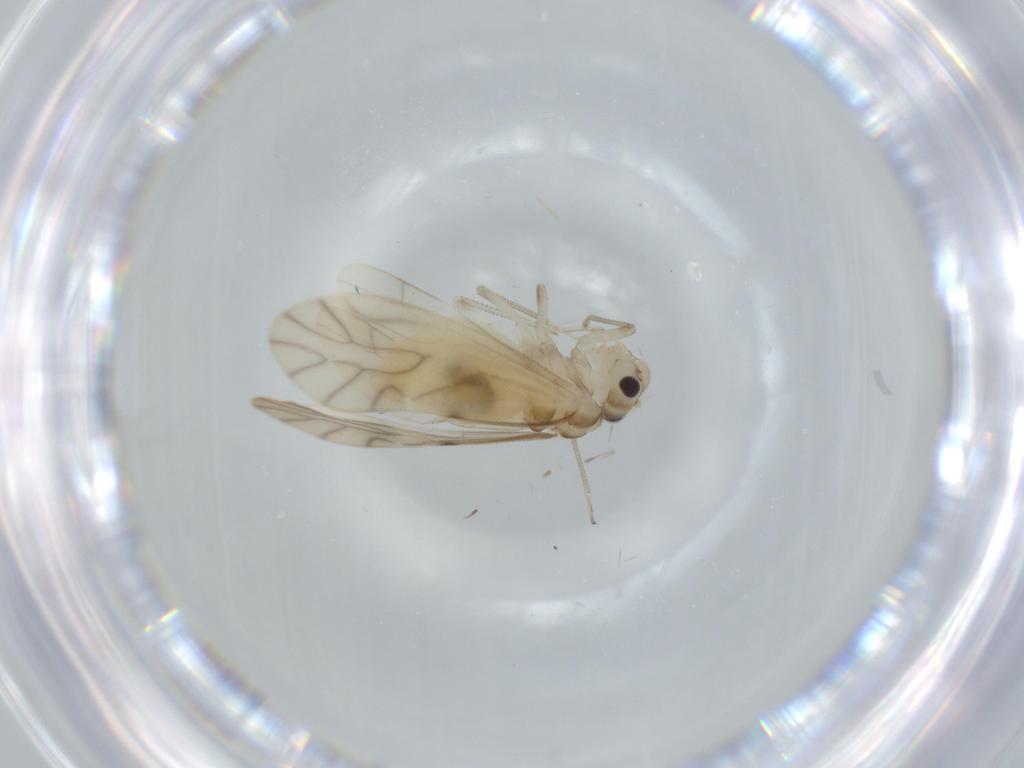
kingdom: Animalia
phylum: Arthropoda
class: Insecta
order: Psocodea
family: Caeciliusidae
